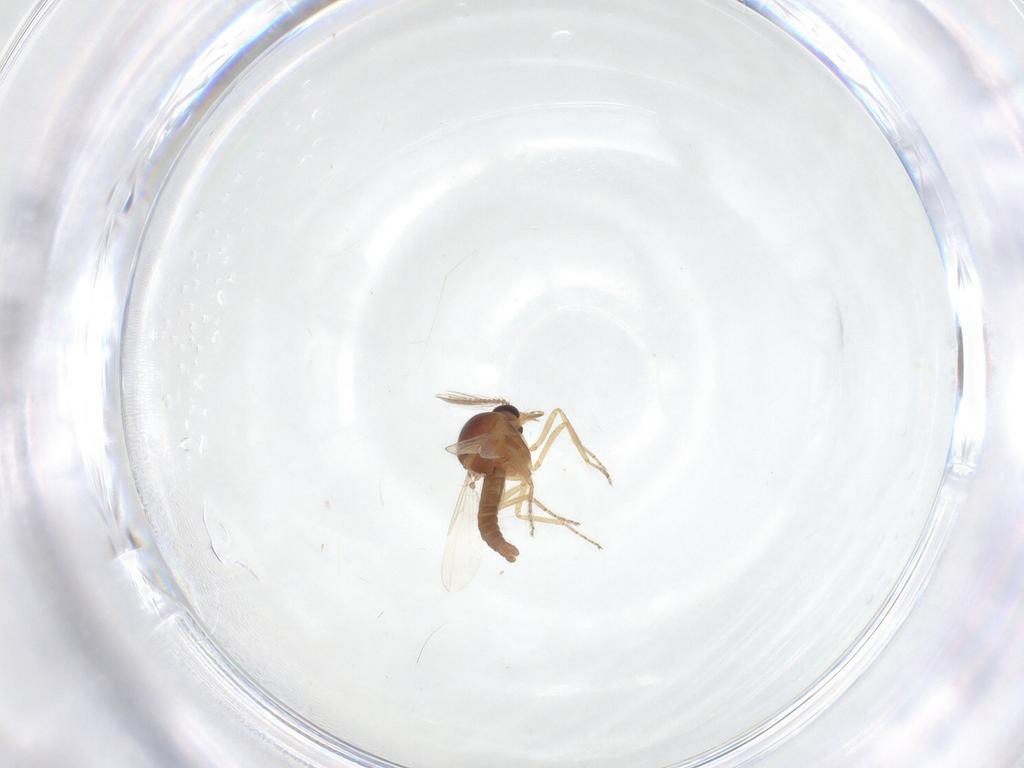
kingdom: Animalia
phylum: Arthropoda
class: Insecta
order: Diptera
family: Ceratopogonidae
